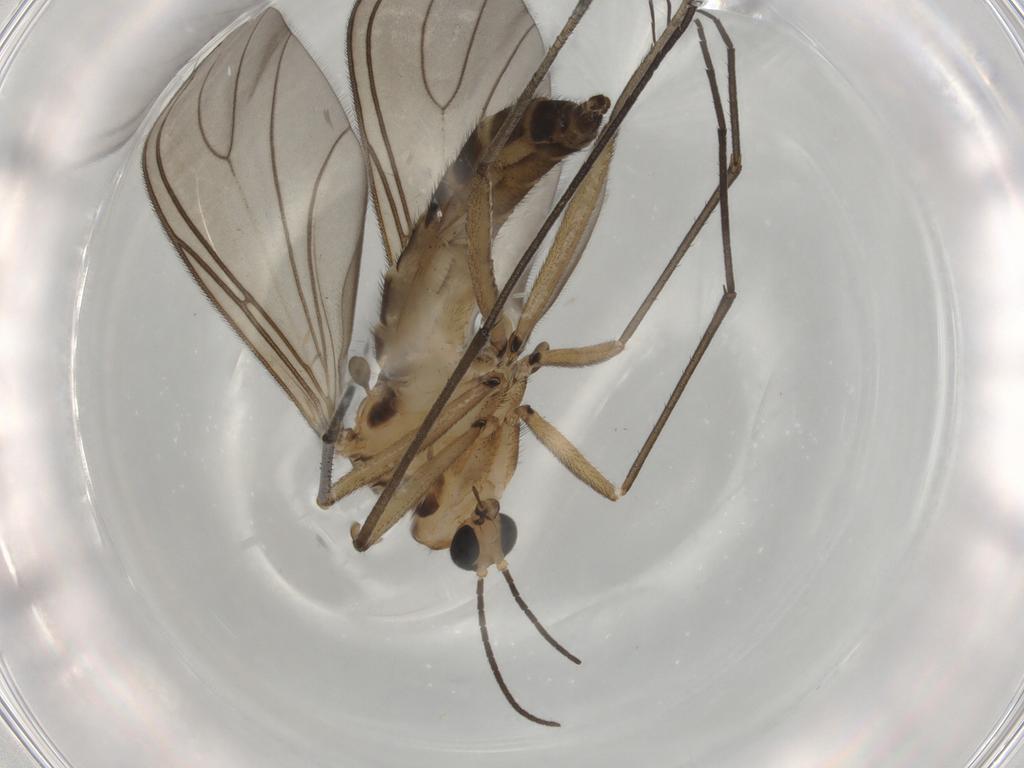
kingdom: Animalia
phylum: Arthropoda
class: Insecta
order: Diptera
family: Sciaridae
